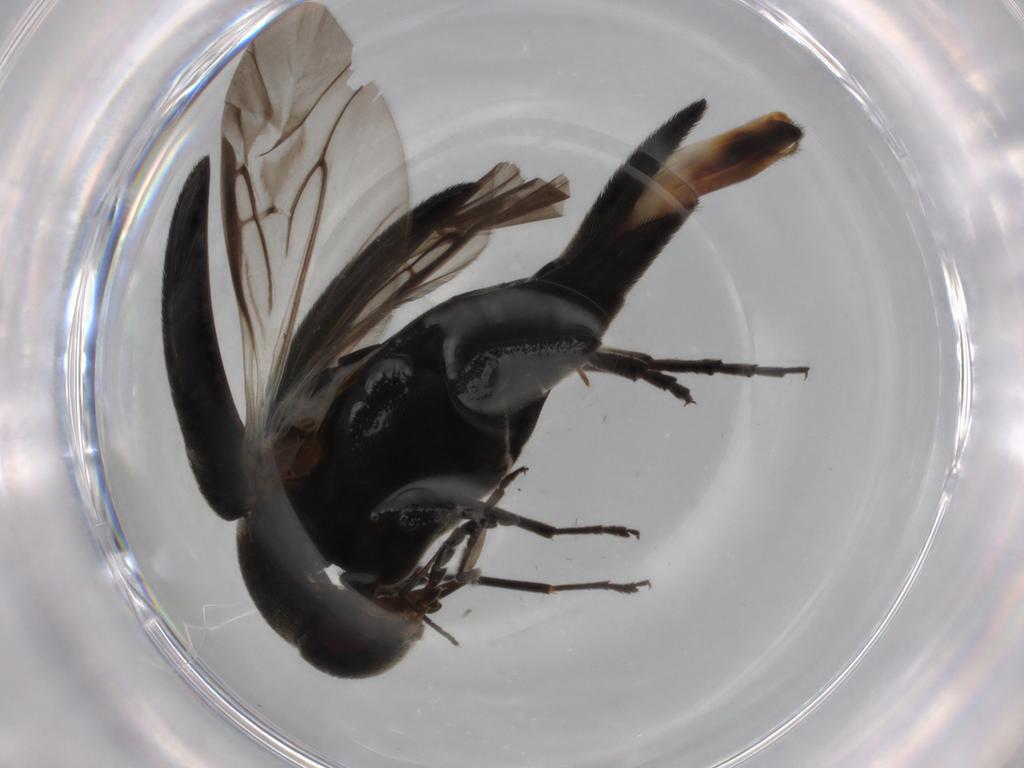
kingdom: Animalia
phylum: Arthropoda
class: Insecta
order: Coleoptera
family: Mordellidae
